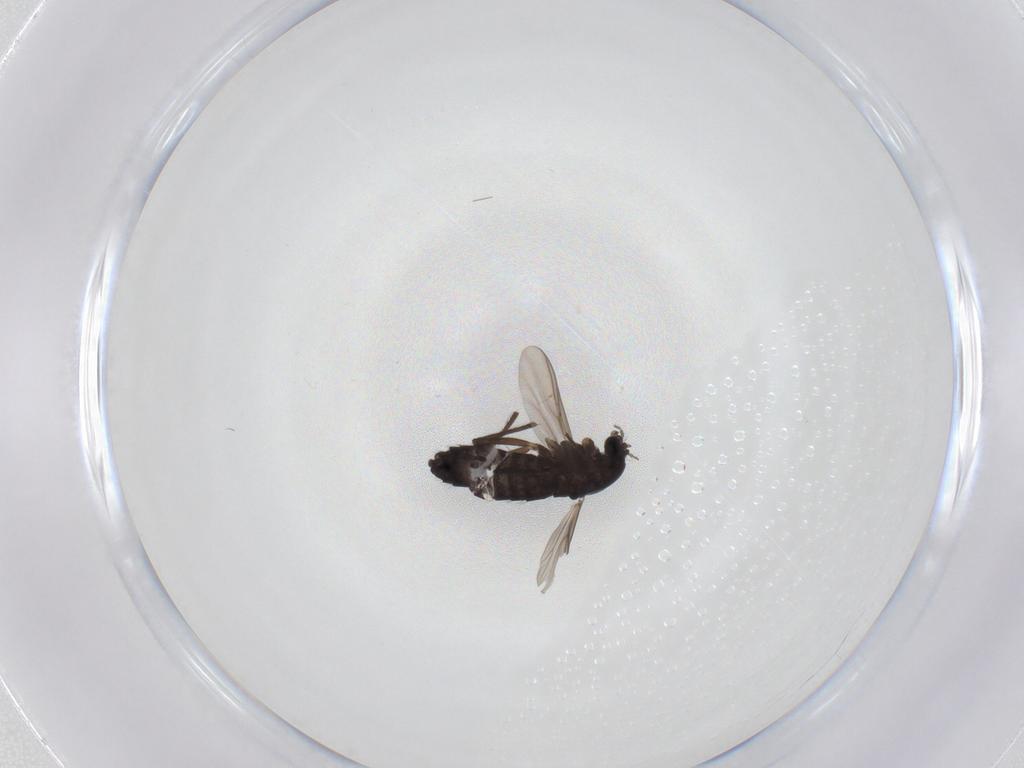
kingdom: Animalia
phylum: Arthropoda
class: Insecta
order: Diptera
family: Chironomidae
